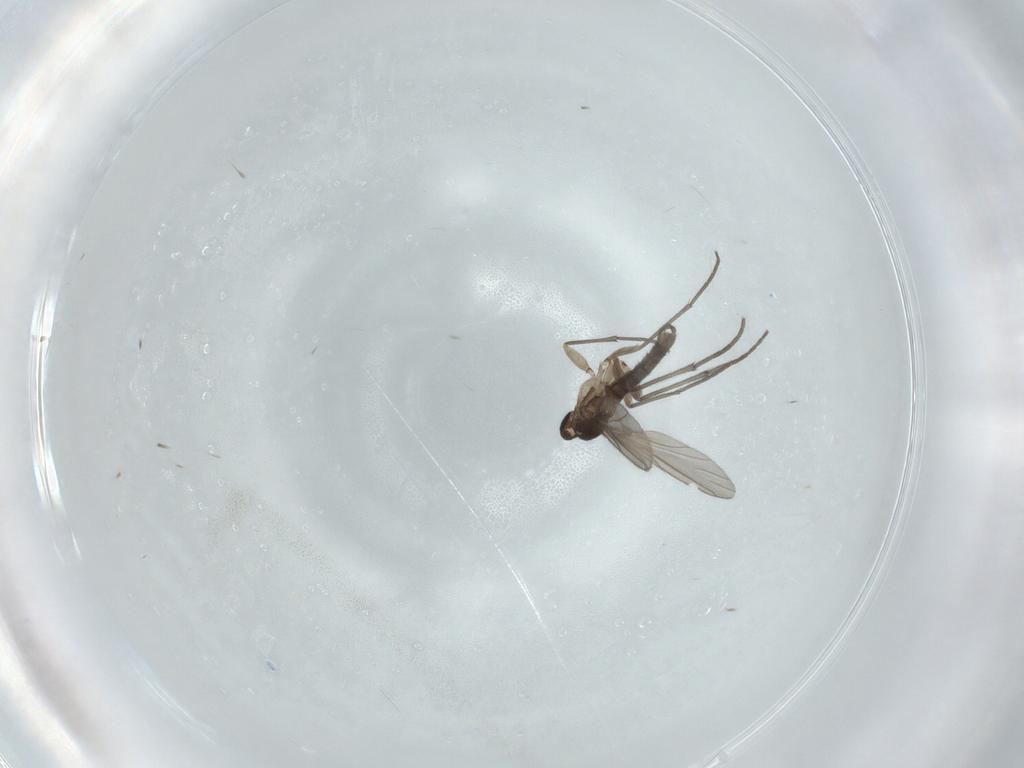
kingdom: Animalia
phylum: Arthropoda
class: Insecta
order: Diptera
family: Sciaridae
